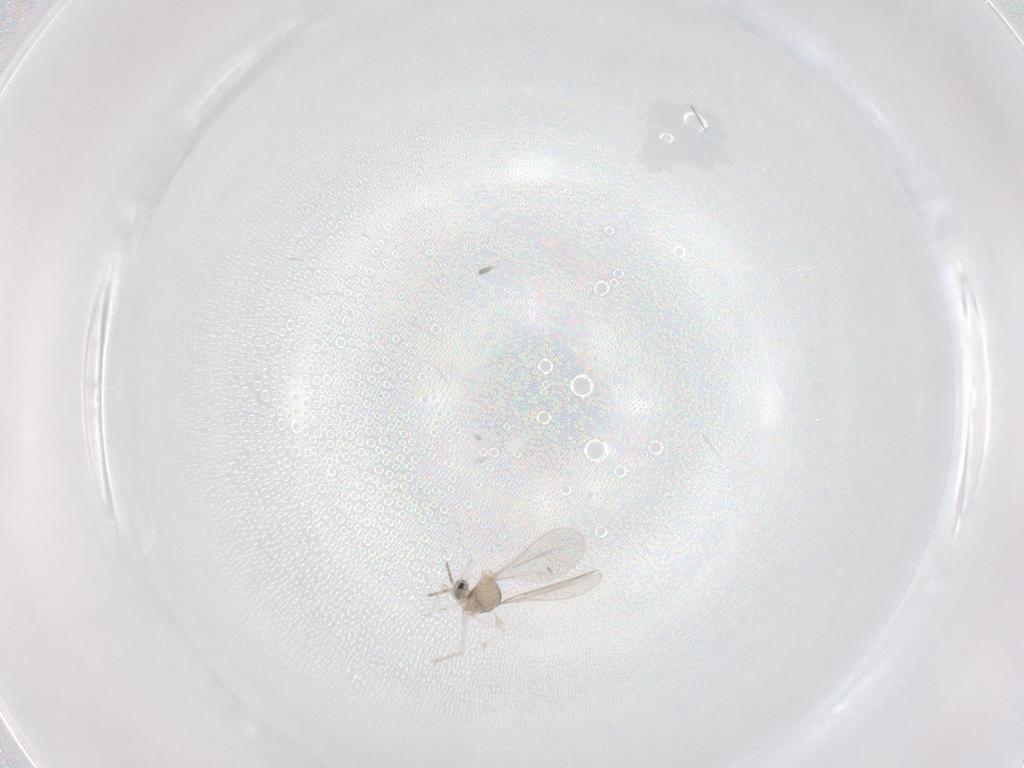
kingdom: Animalia
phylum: Arthropoda
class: Insecta
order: Diptera
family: Cecidomyiidae
